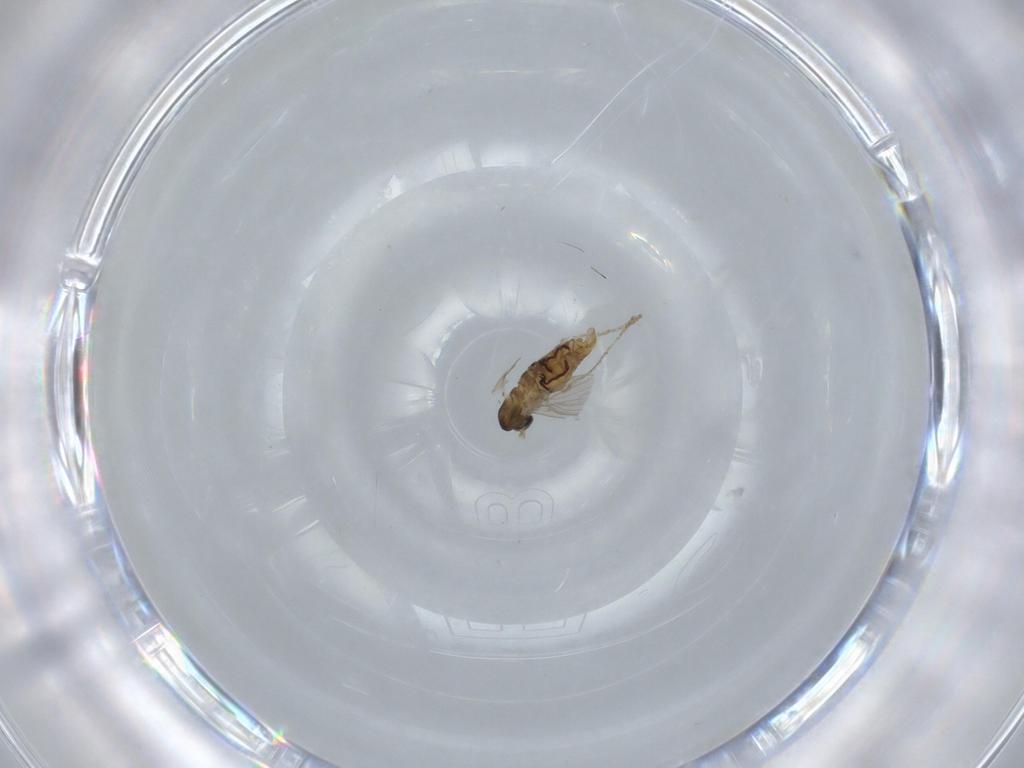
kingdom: Animalia
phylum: Arthropoda
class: Insecta
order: Diptera
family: Psychodidae
